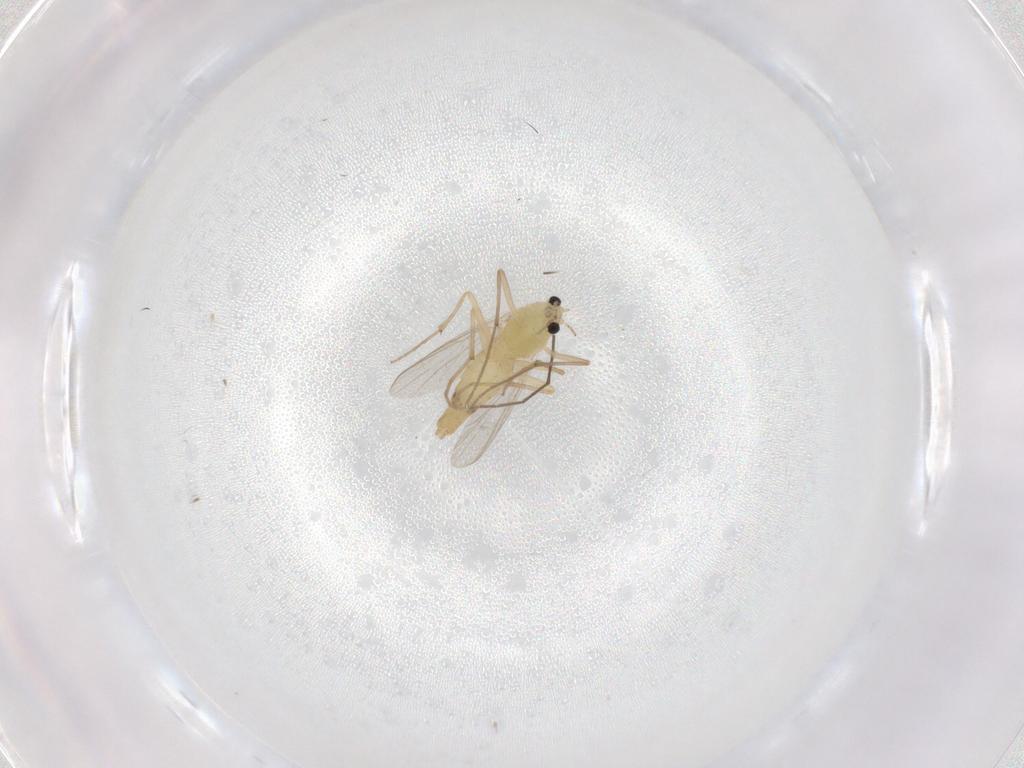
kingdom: Animalia
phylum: Arthropoda
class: Insecta
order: Diptera
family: Chironomidae
